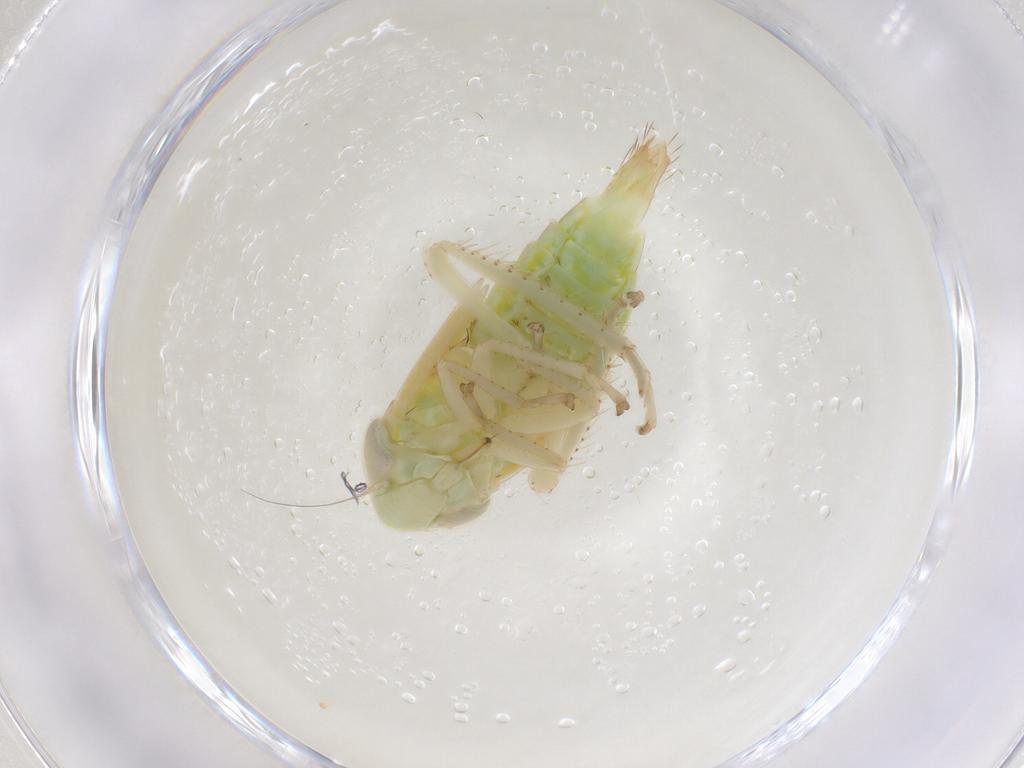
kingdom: Animalia
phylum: Arthropoda
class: Insecta
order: Hemiptera
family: Cicadellidae
